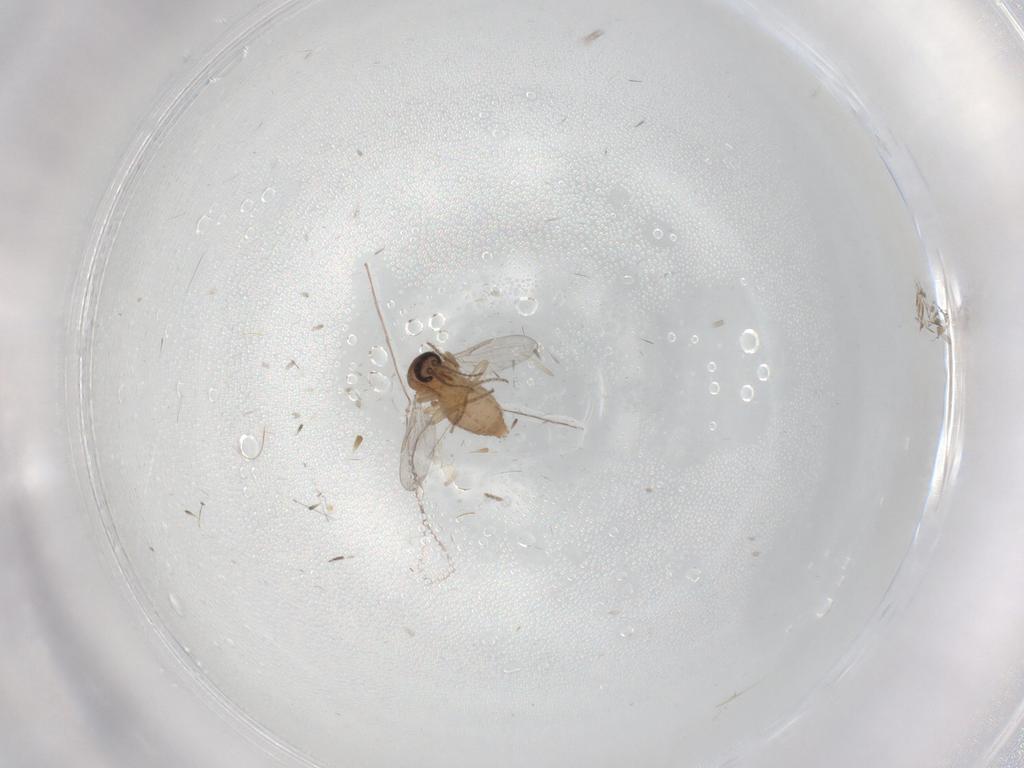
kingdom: Animalia
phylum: Arthropoda
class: Insecta
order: Diptera
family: Ceratopogonidae
